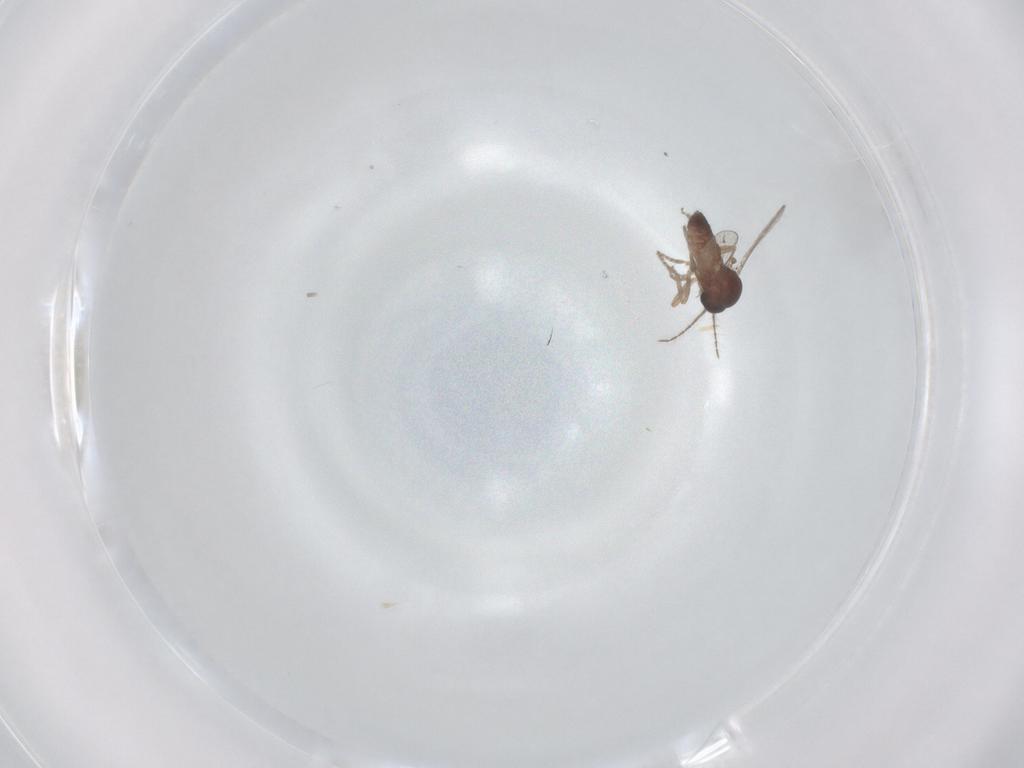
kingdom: Animalia
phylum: Arthropoda
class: Insecta
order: Diptera
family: Ceratopogonidae
